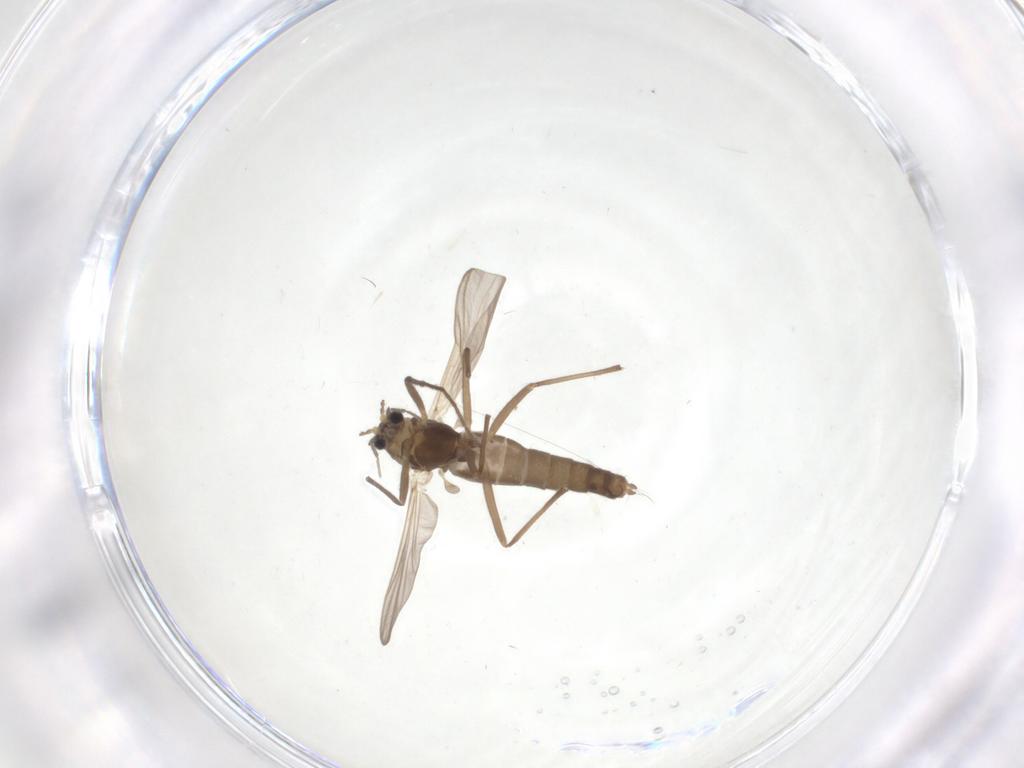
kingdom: Animalia
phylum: Arthropoda
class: Insecta
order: Diptera
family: Chironomidae
